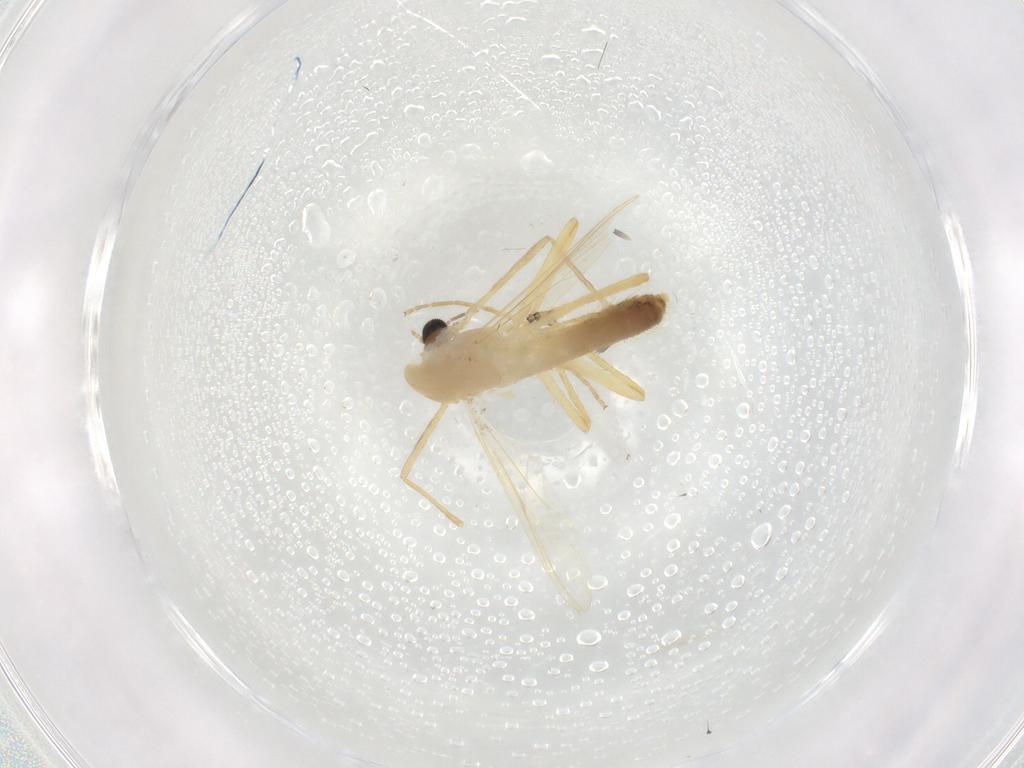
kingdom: Animalia
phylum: Arthropoda
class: Insecta
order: Diptera
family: Chironomidae
